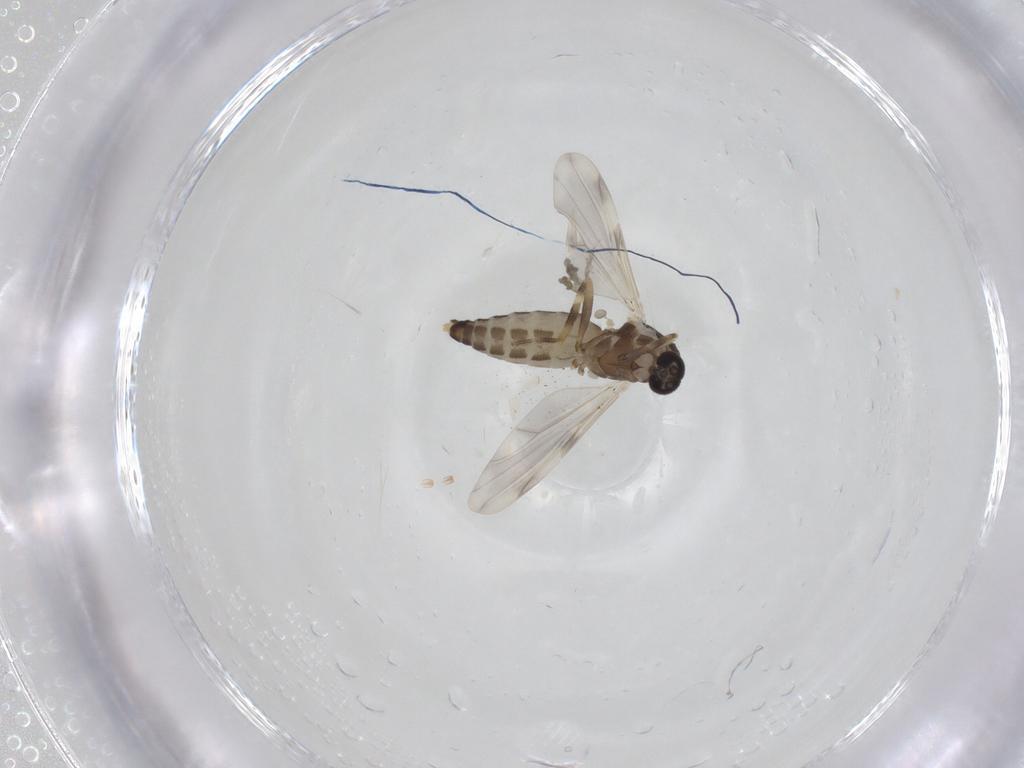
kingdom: Animalia
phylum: Arthropoda
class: Insecta
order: Diptera
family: Ceratopogonidae
